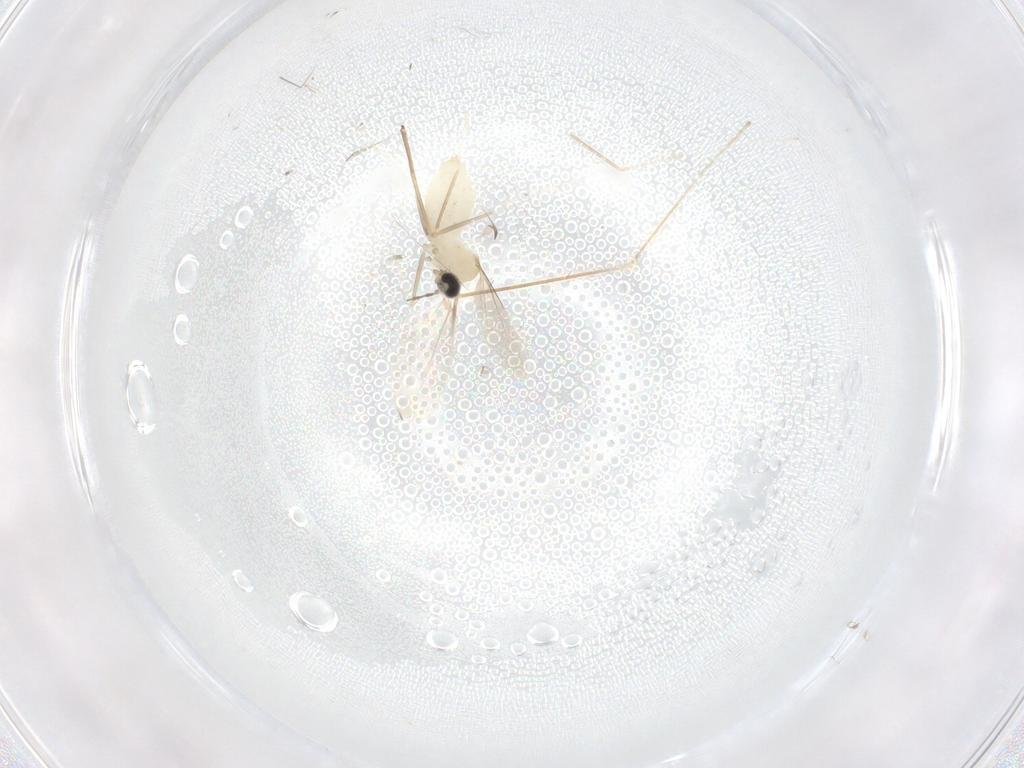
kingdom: Animalia
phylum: Arthropoda
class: Insecta
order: Diptera
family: Cecidomyiidae
